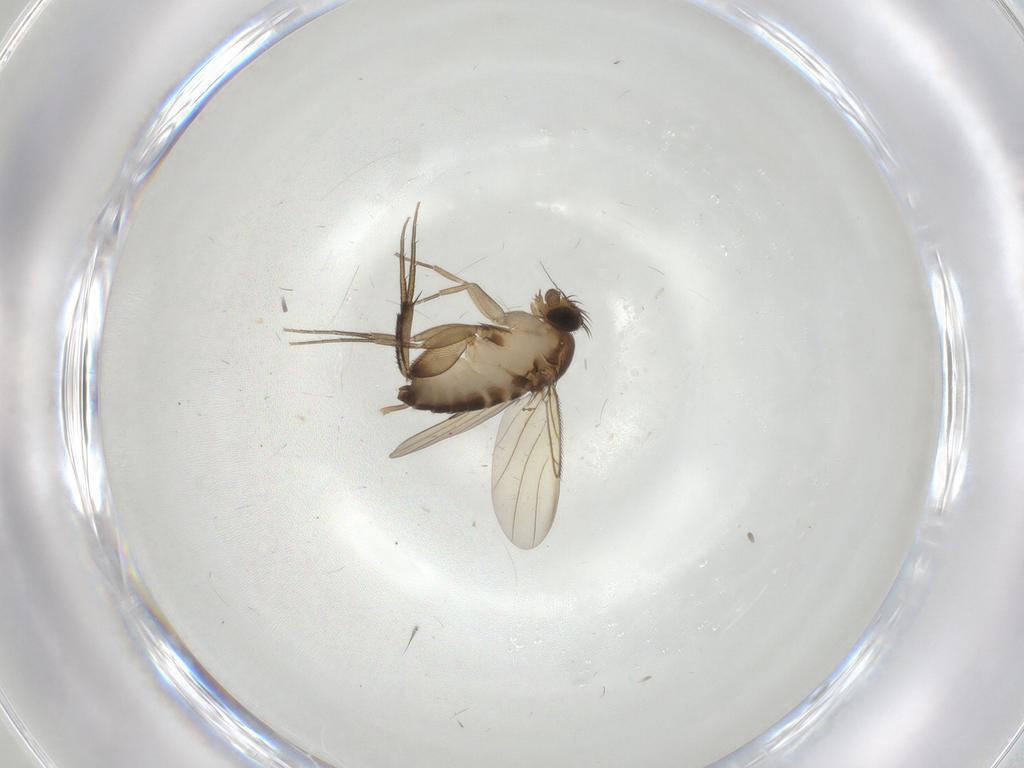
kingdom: Animalia
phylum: Arthropoda
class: Insecta
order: Diptera
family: Phoridae
